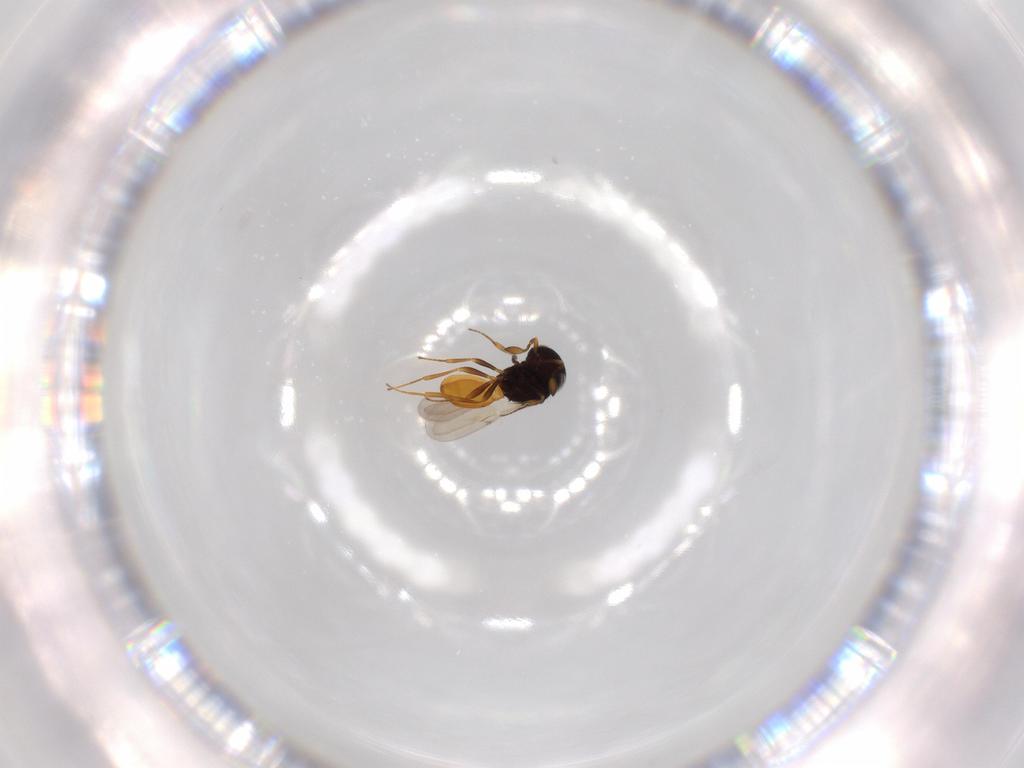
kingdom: Animalia
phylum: Arthropoda
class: Insecta
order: Hymenoptera
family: Scelionidae
